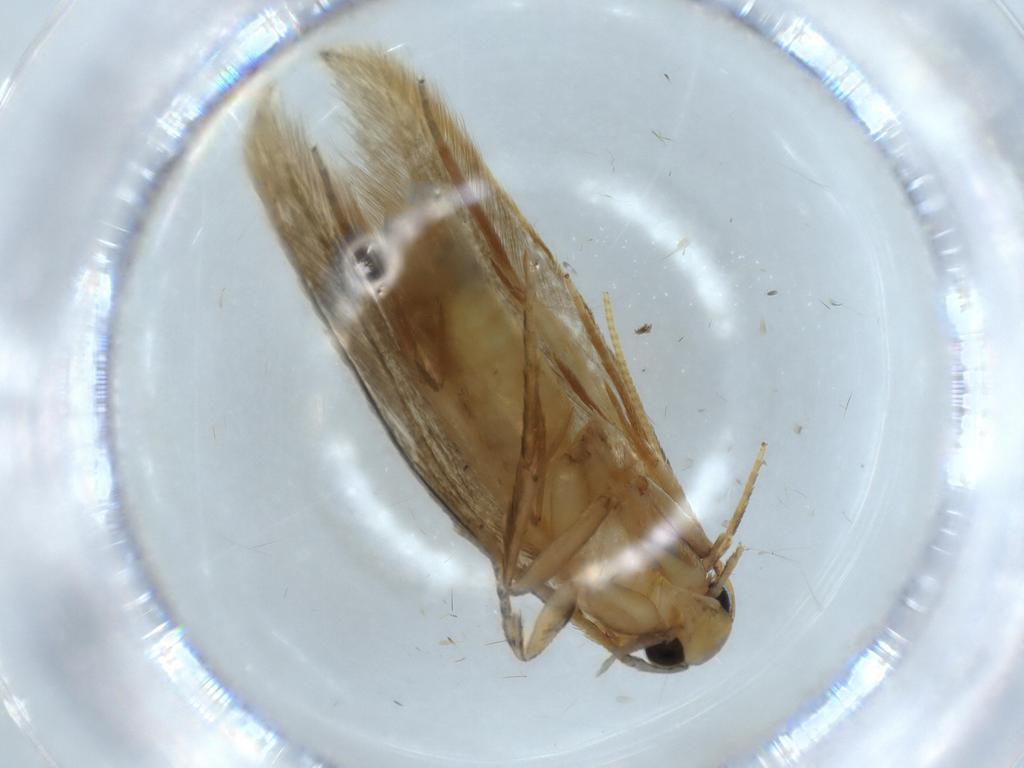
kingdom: Animalia
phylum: Arthropoda
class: Insecta
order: Lepidoptera
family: Tineidae
